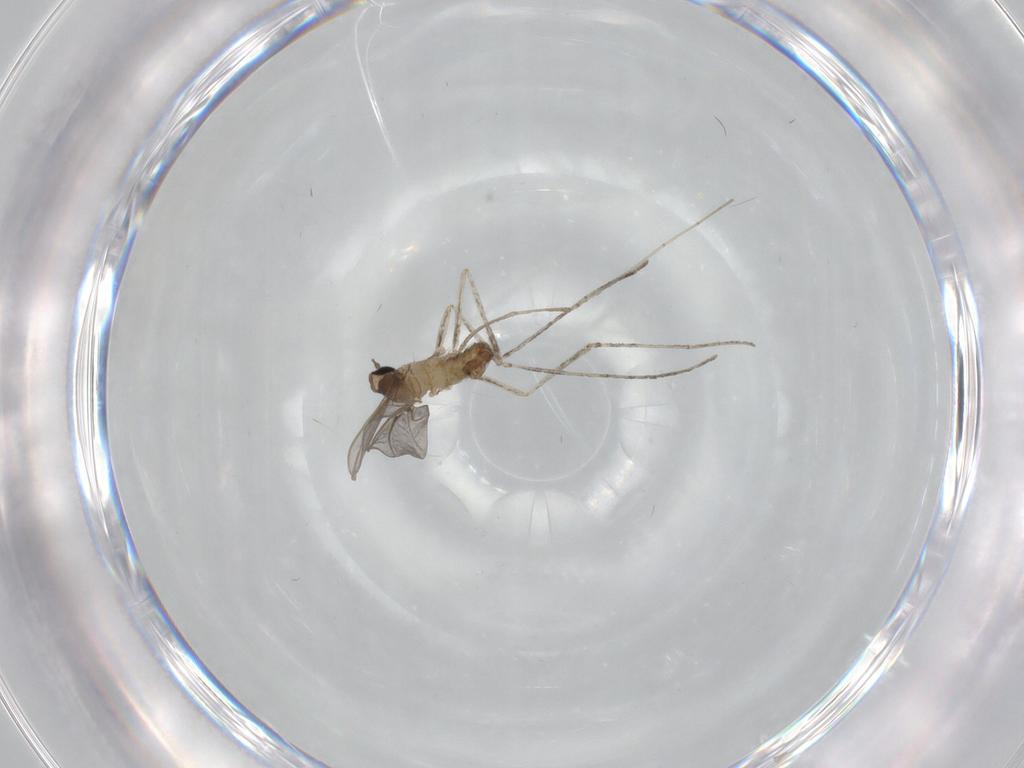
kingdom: Animalia
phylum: Arthropoda
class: Insecta
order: Diptera
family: Cecidomyiidae
